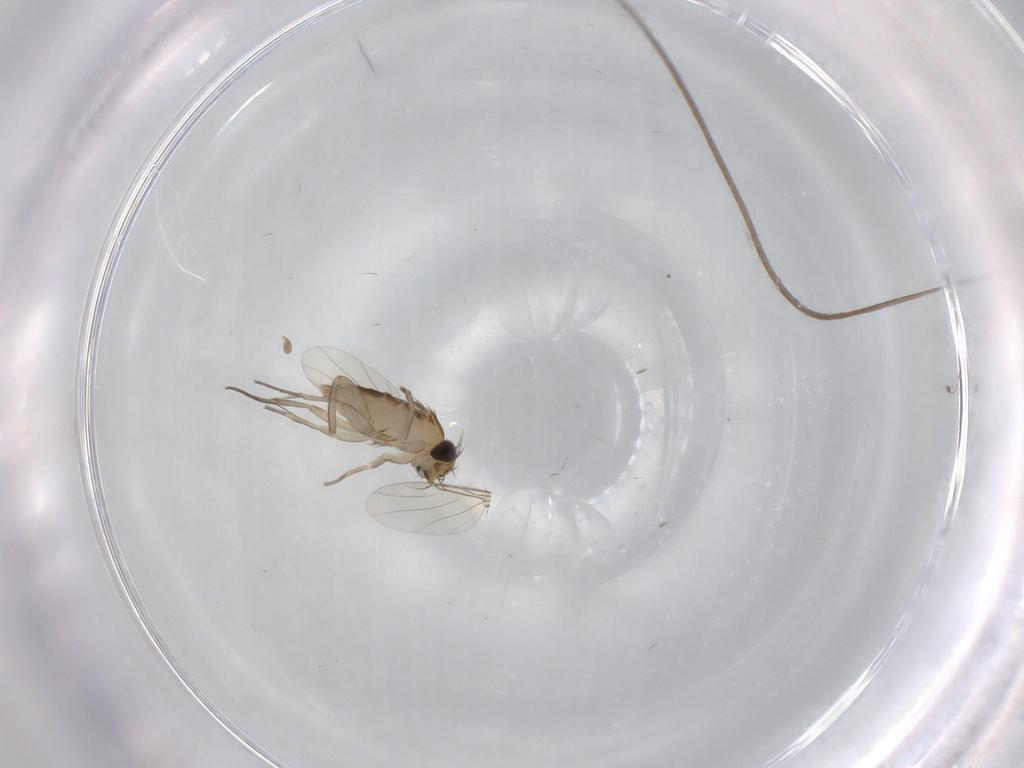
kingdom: Animalia
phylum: Arthropoda
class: Insecta
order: Diptera
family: Phoridae
